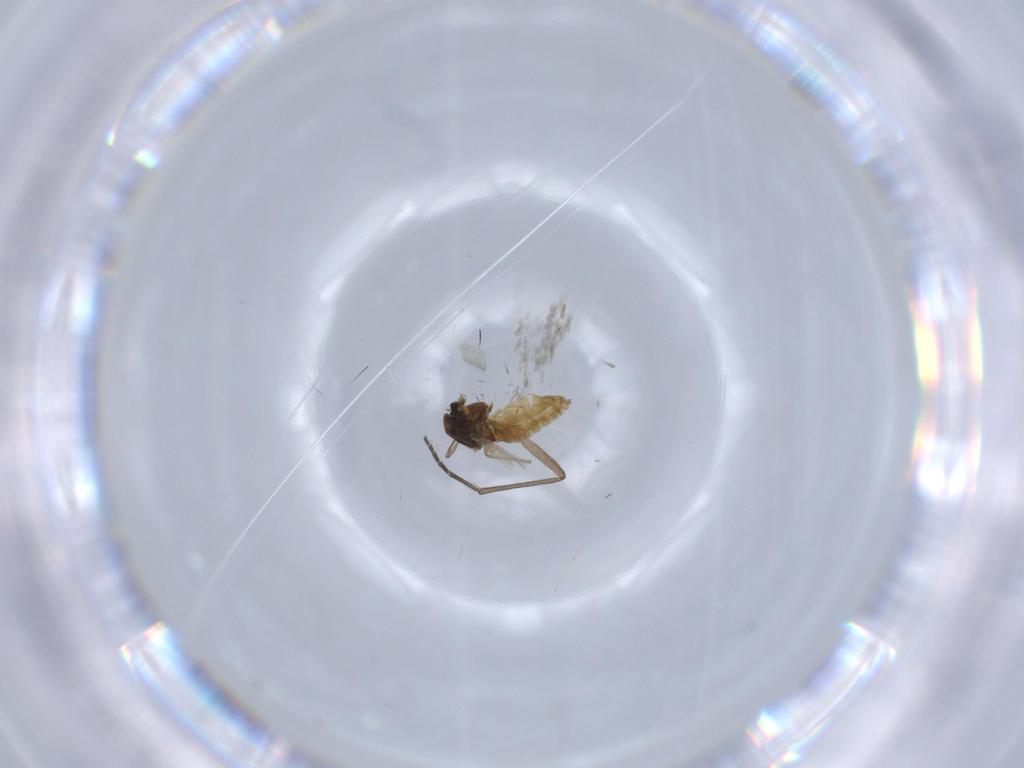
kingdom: Animalia
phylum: Arthropoda
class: Insecta
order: Diptera
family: Chironomidae
